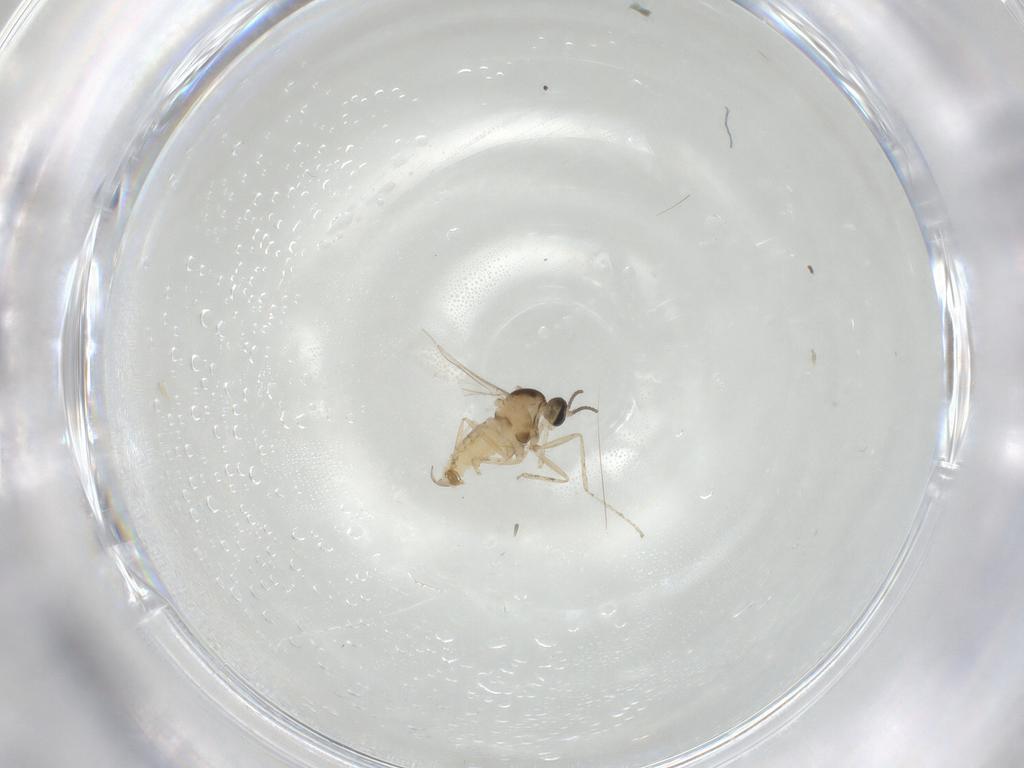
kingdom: Animalia
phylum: Arthropoda
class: Insecta
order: Diptera
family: Cecidomyiidae
